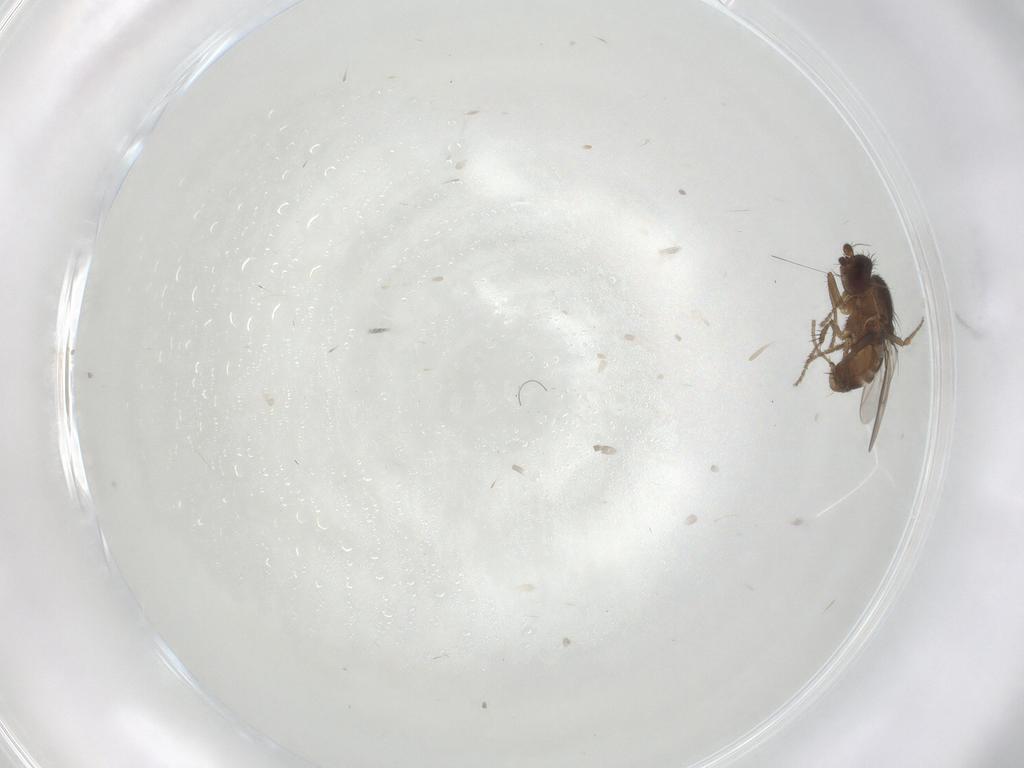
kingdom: Animalia
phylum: Arthropoda
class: Insecta
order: Diptera
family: Sphaeroceridae
